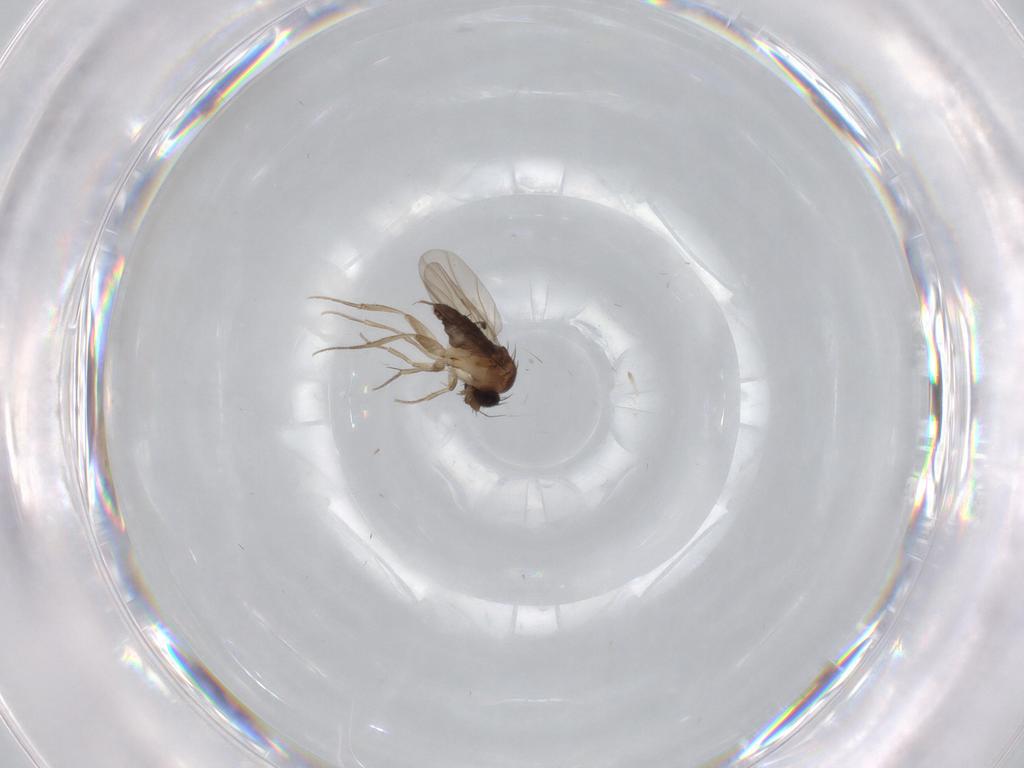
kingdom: Animalia
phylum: Arthropoda
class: Insecta
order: Diptera
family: Phoridae
